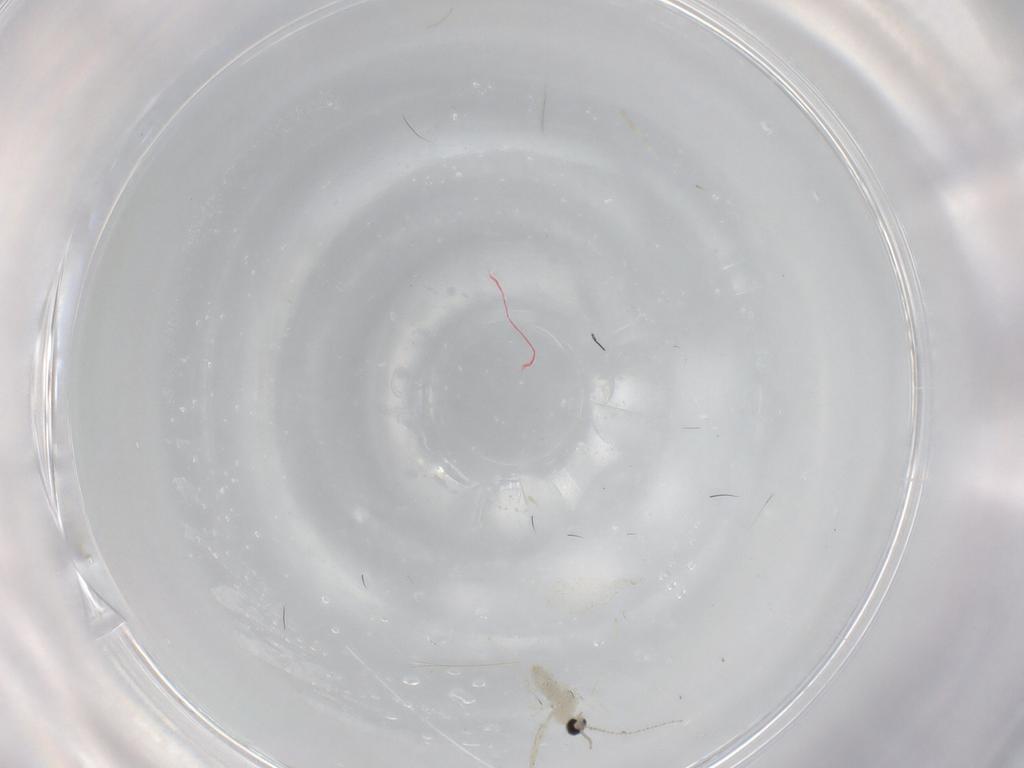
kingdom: Animalia
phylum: Arthropoda
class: Insecta
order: Diptera
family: Cecidomyiidae
